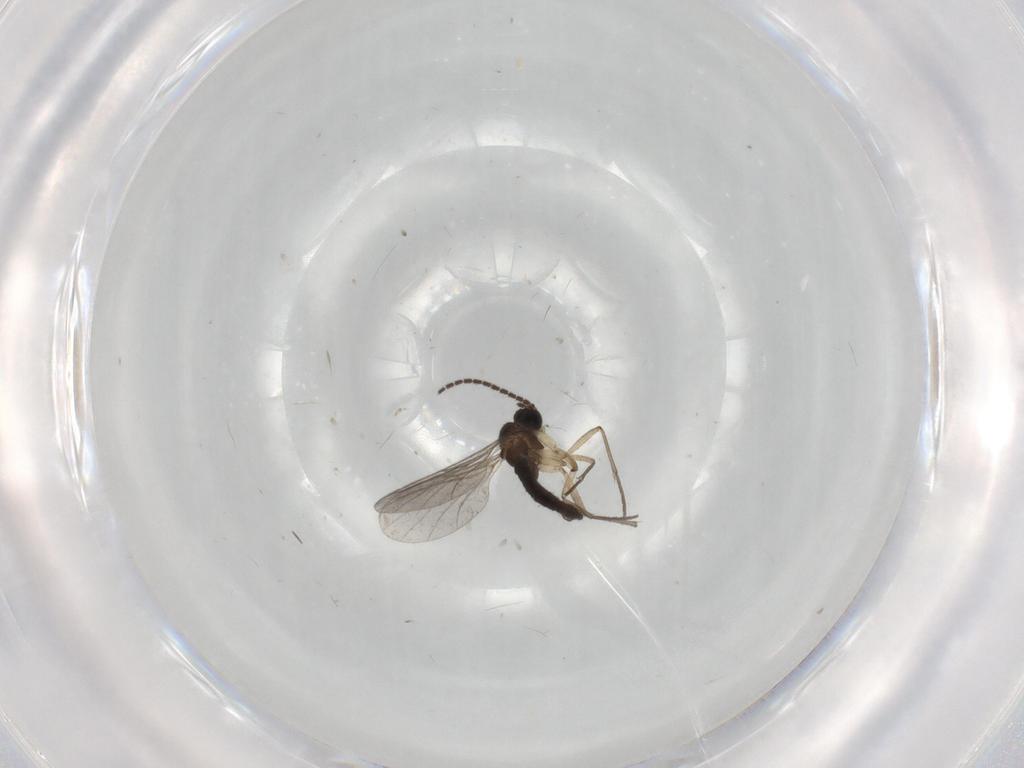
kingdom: Animalia
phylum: Arthropoda
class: Insecta
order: Diptera
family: Sciaridae
